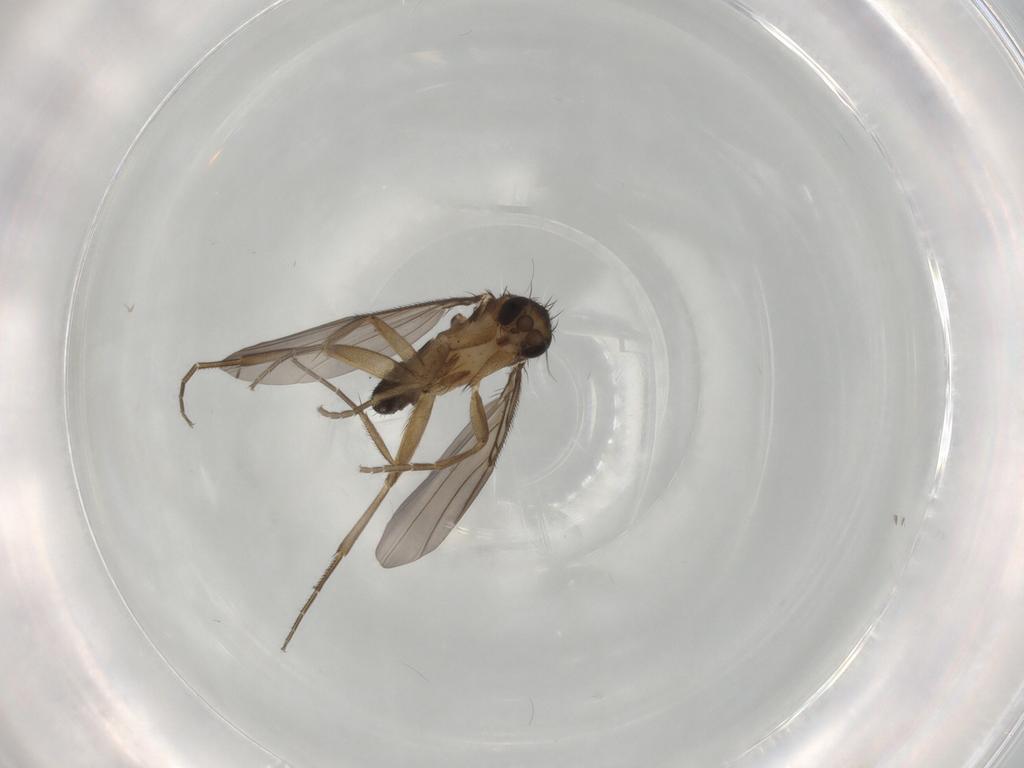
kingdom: Animalia
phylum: Arthropoda
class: Insecta
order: Diptera
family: Phoridae
